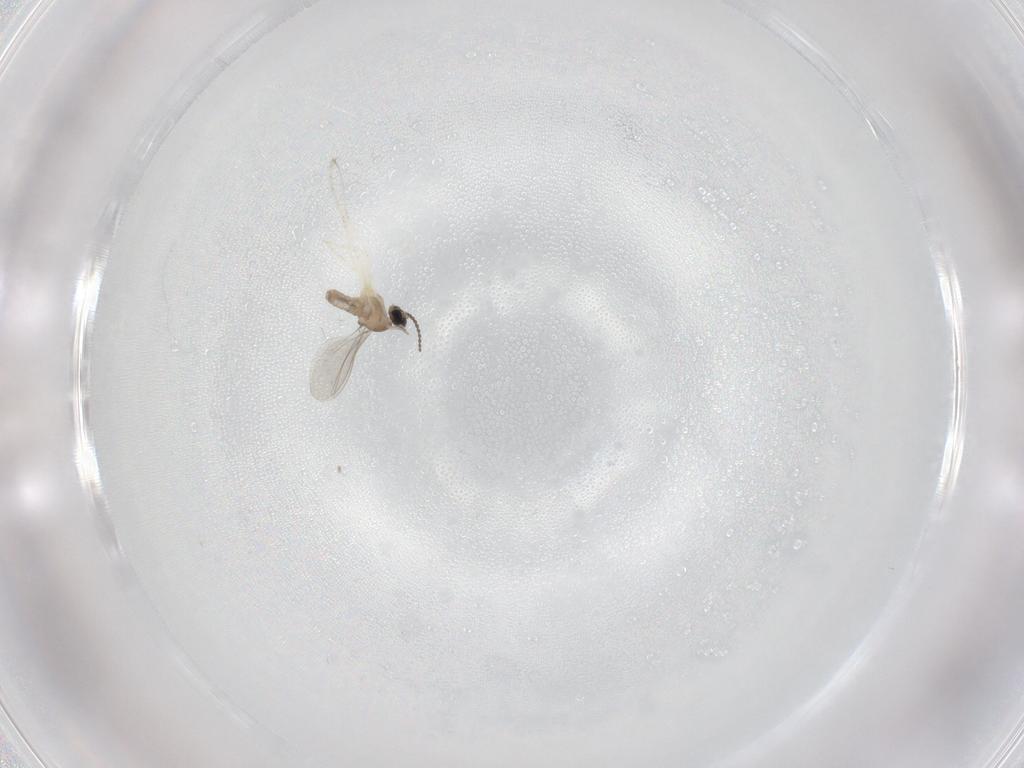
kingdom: Animalia
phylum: Arthropoda
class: Insecta
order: Diptera
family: Cecidomyiidae
